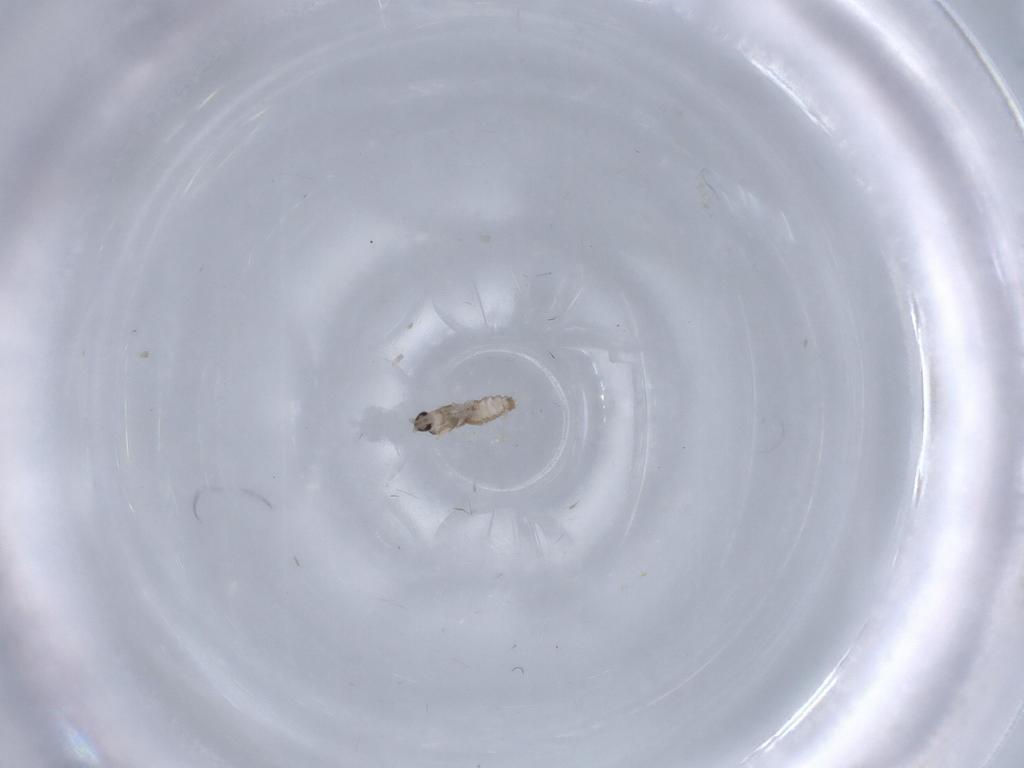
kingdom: Animalia
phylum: Arthropoda
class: Insecta
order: Diptera
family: Cecidomyiidae
